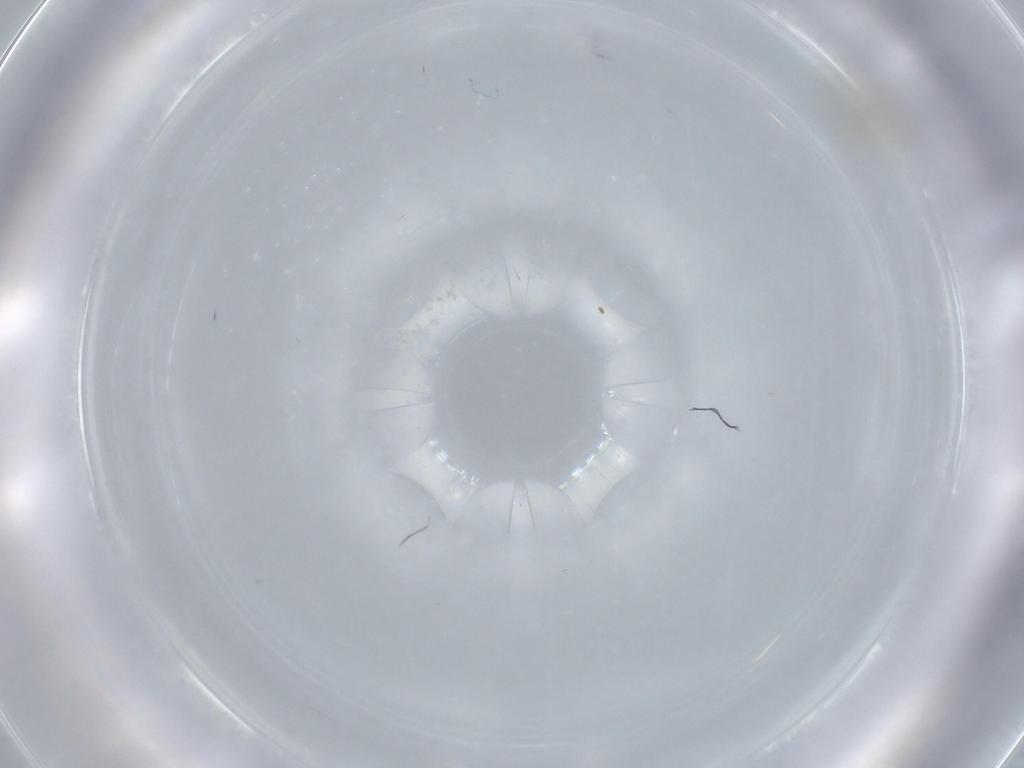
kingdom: Animalia
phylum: Arthropoda
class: Insecta
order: Hymenoptera
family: Mymaridae
